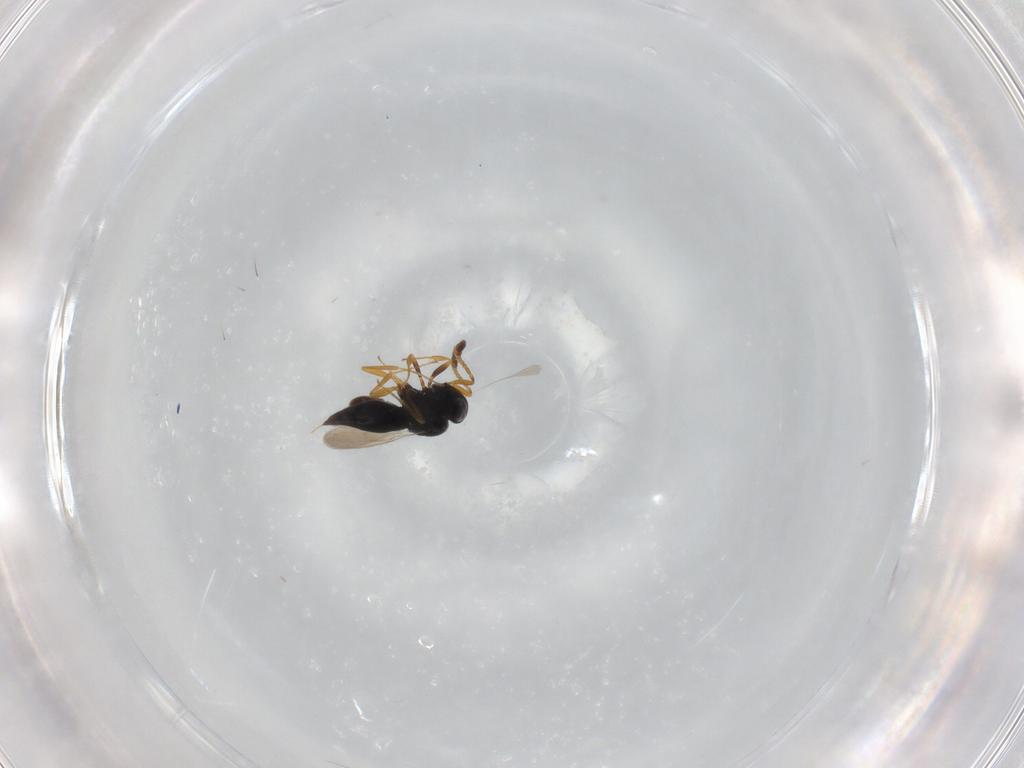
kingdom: Animalia
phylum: Arthropoda
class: Insecta
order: Hymenoptera
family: Scelionidae
